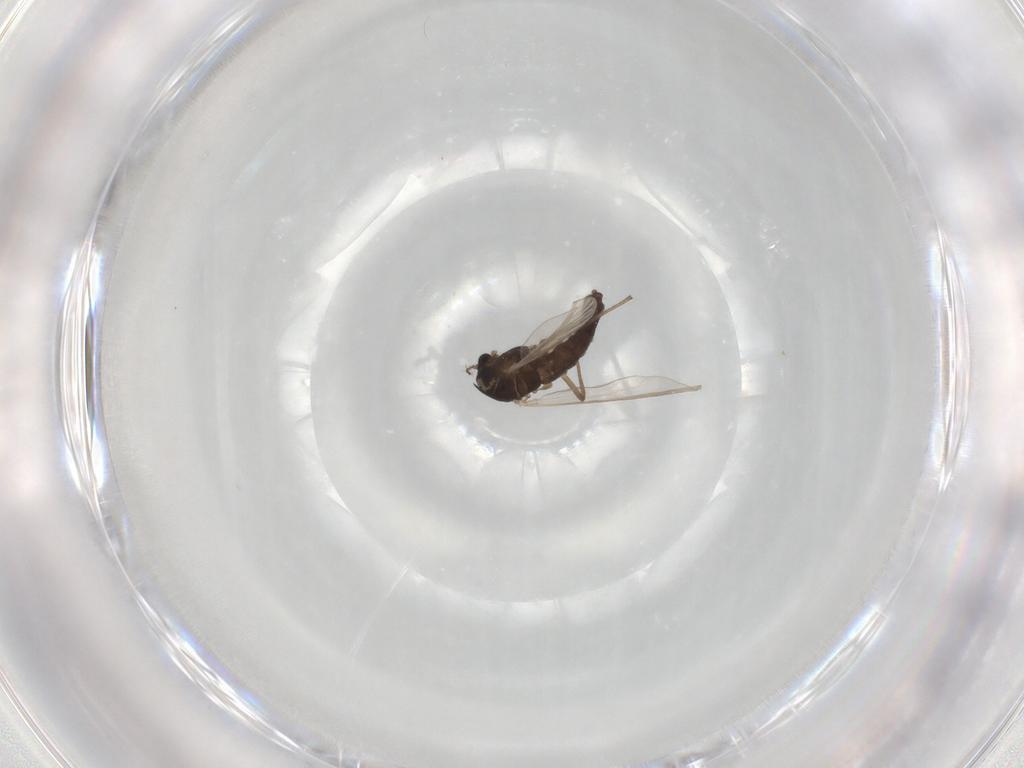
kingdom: Animalia
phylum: Arthropoda
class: Insecta
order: Diptera
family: Chironomidae
